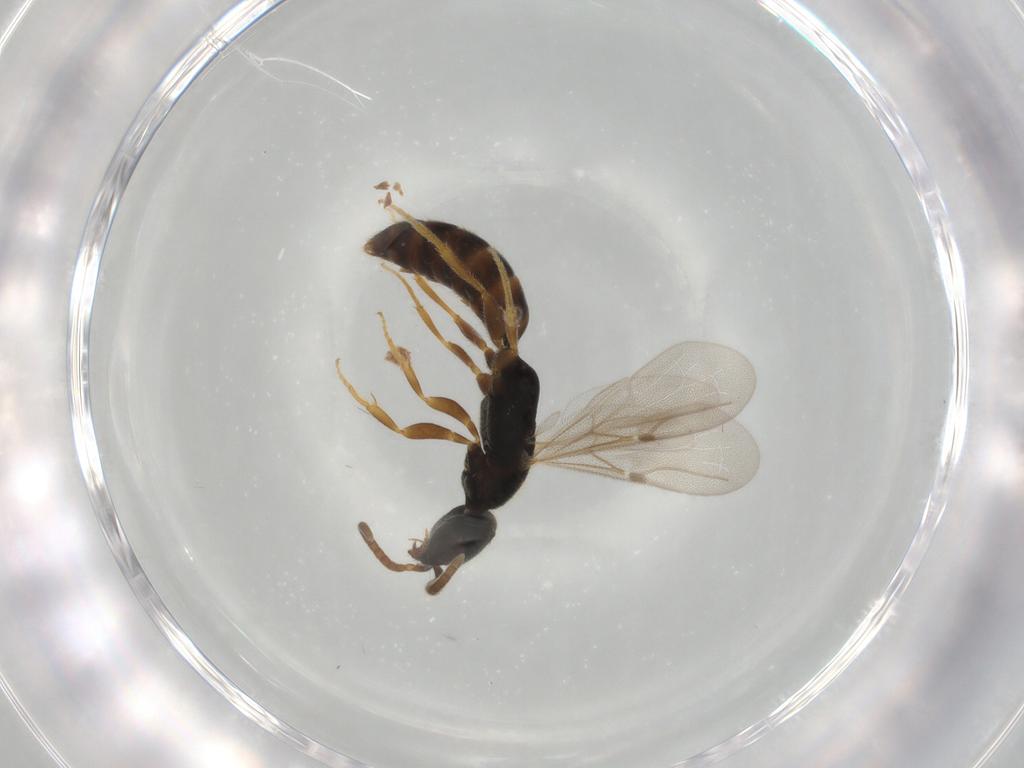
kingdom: Animalia
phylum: Arthropoda
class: Insecta
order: Hymenoptera
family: Bethylidae
